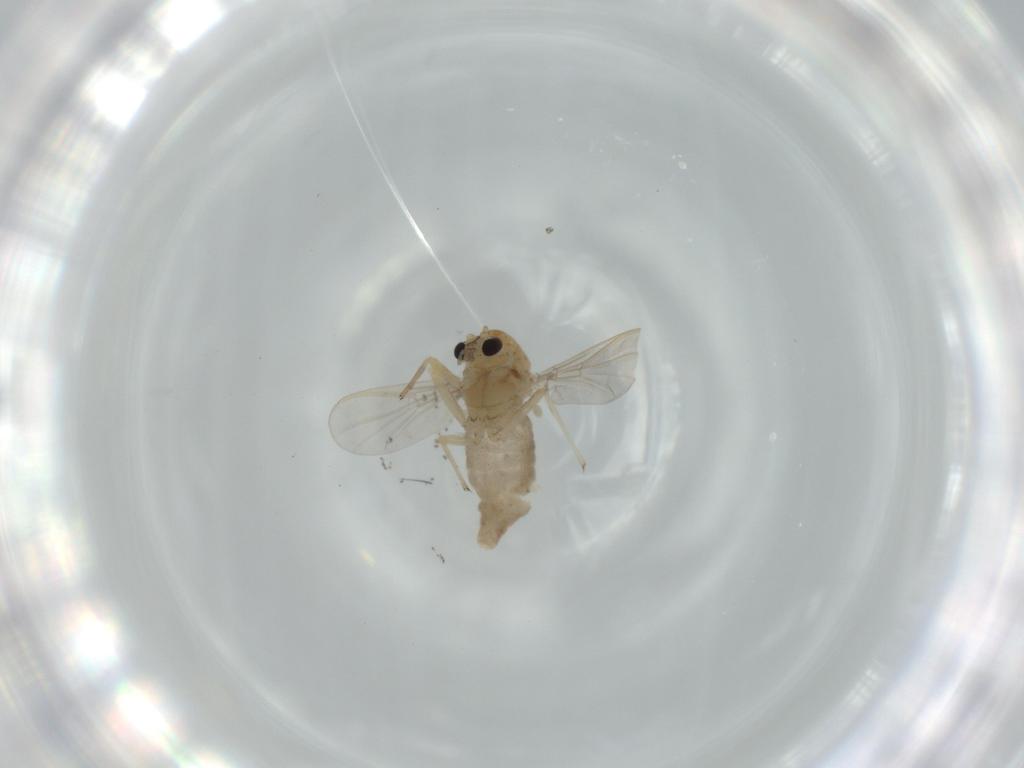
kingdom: Animalia
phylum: Arthropoda
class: Insecta
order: Diptera
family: Chironomidae
